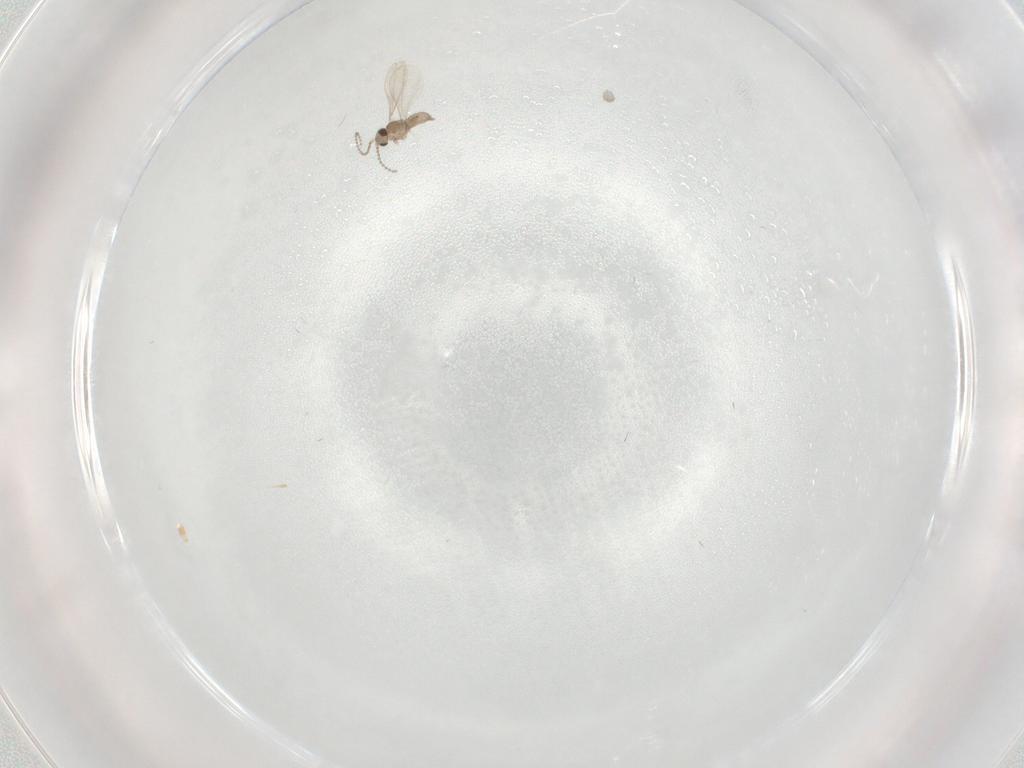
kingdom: Animalia
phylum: Arthropoda
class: Insecta
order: Diptera
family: Cecidomyiidae
